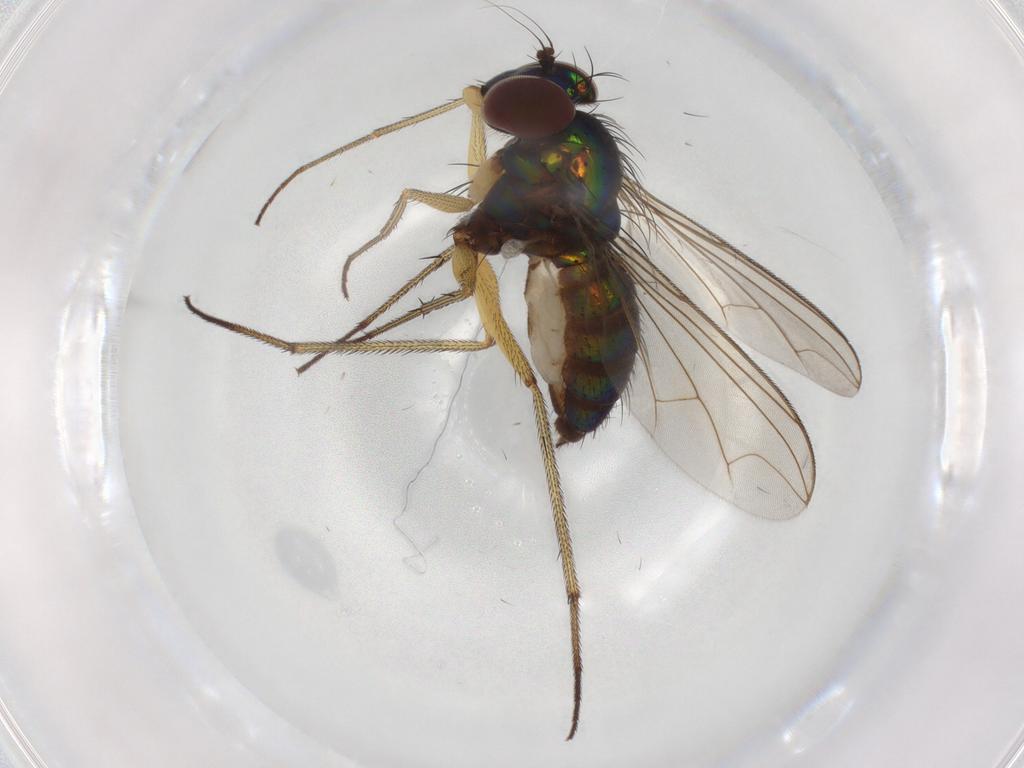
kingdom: Animalia
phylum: Arthropoda
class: Insecta
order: Diptera
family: Dolichopodidae
